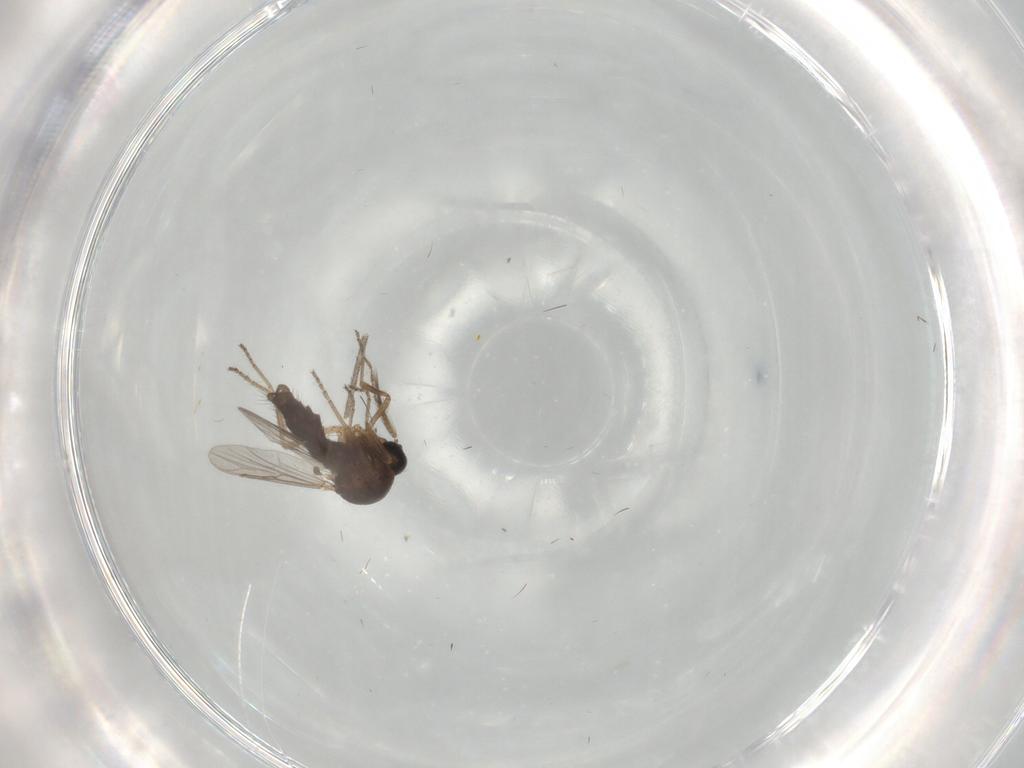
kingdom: Animalia
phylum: Arthropoda
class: Insecta
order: Diptera
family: Ceratopogonidae
